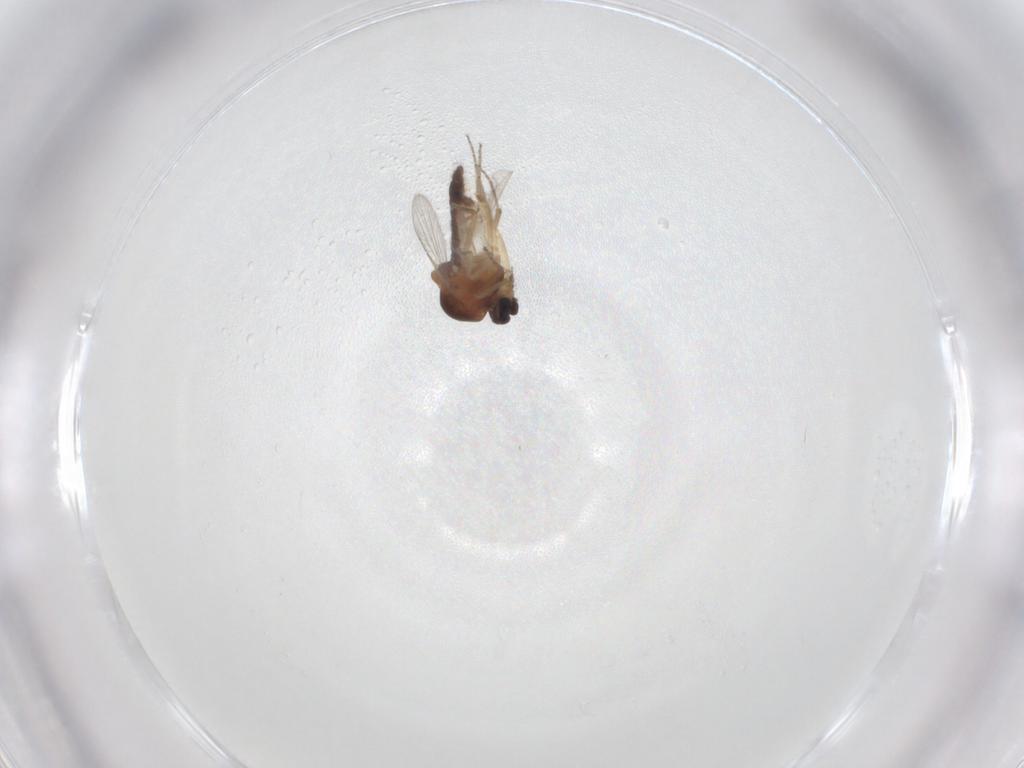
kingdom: Animalia
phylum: Arthropoda
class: Insecta
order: Diptera
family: Ceratopogonidae
